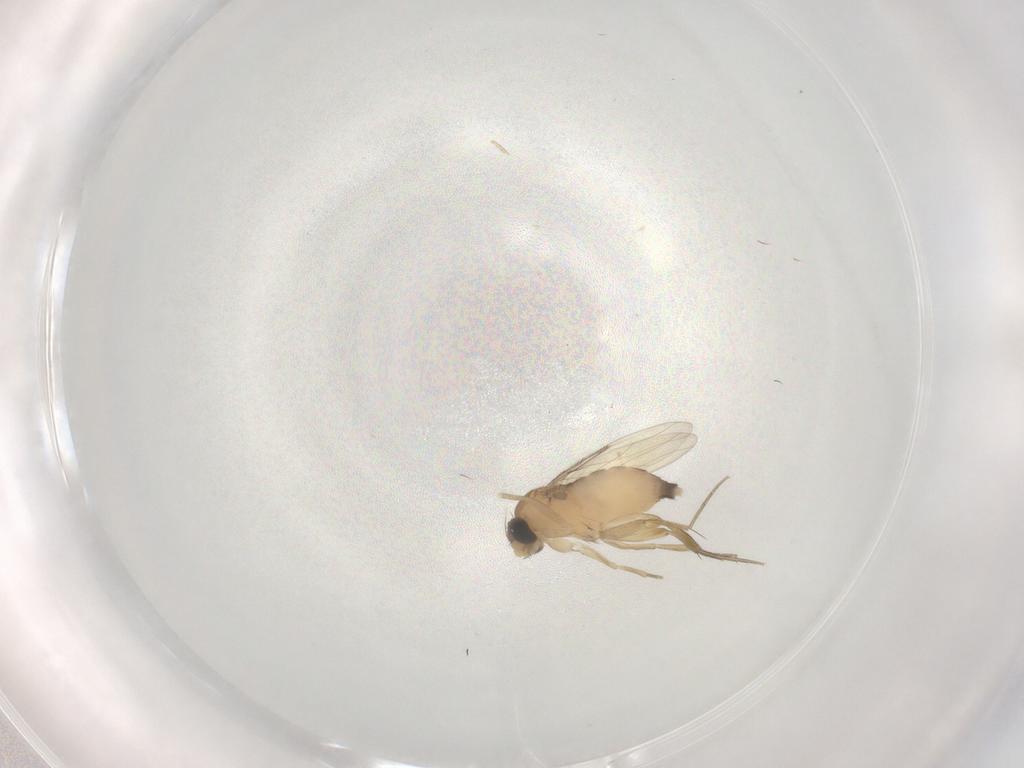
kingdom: Animalia
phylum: Arthropoda
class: Insecta
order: Diptera
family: Phoridae
